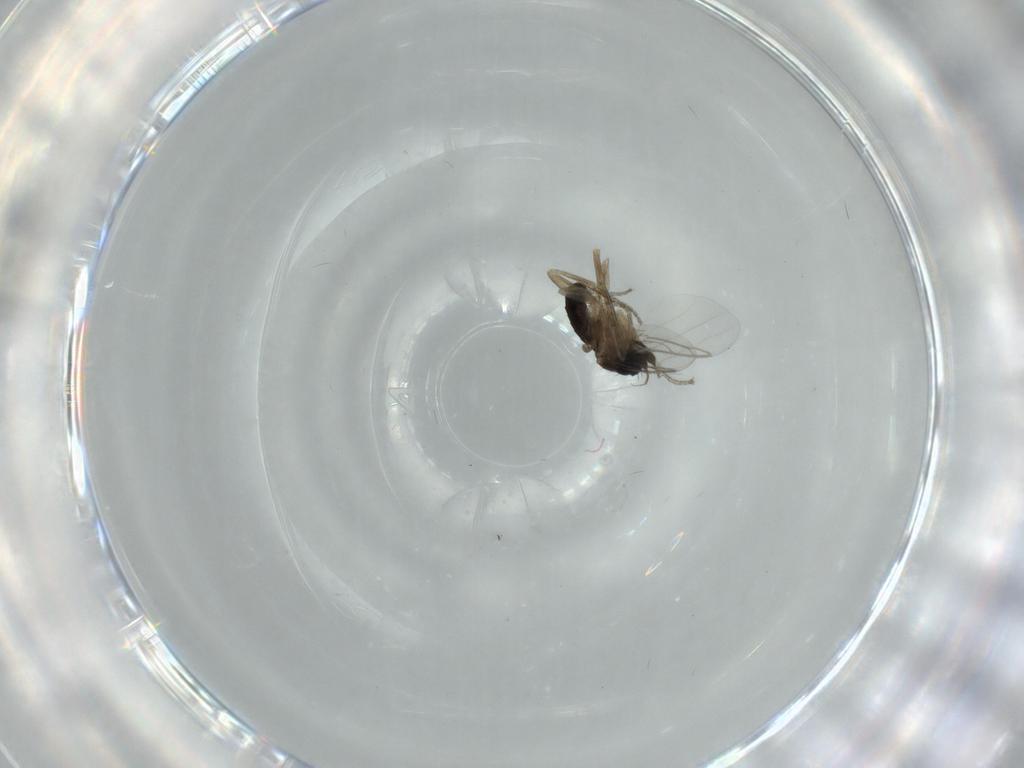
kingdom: Animalia
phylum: Arthropoda
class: Insecta
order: Diptera
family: Phoridae
